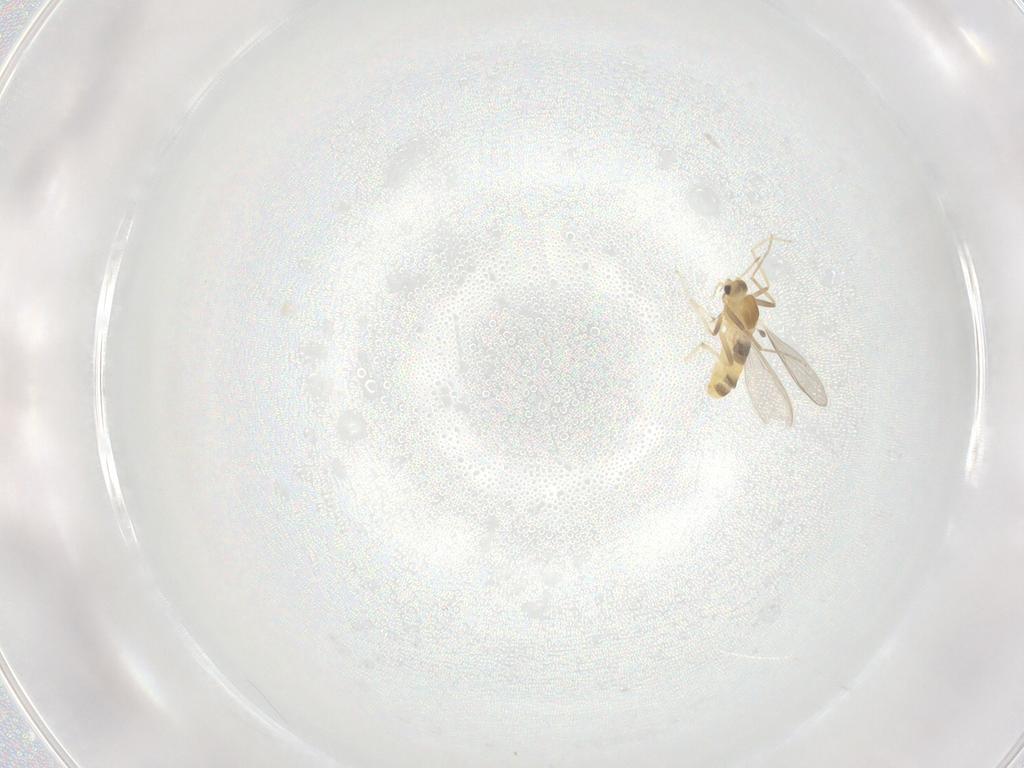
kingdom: Animalia
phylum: Arthropoda
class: Insecta
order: Diptera
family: Chironomidae
